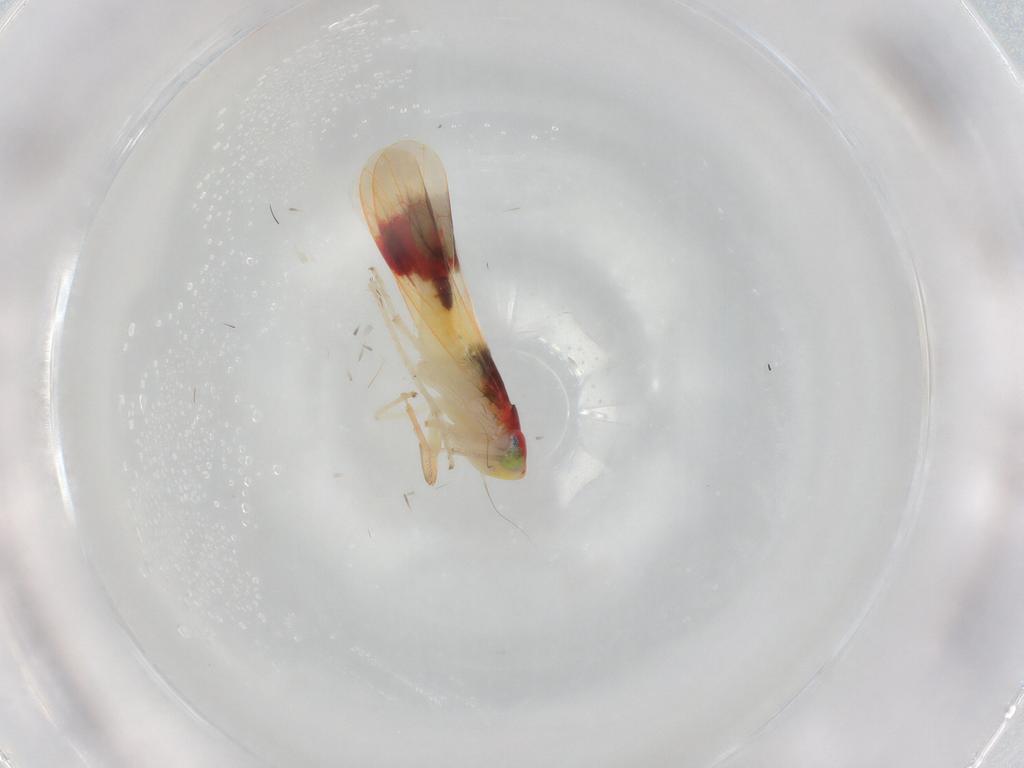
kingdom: Animalia
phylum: Arthropoda
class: Insecta
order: Hemiptera
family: Cicadellidae
